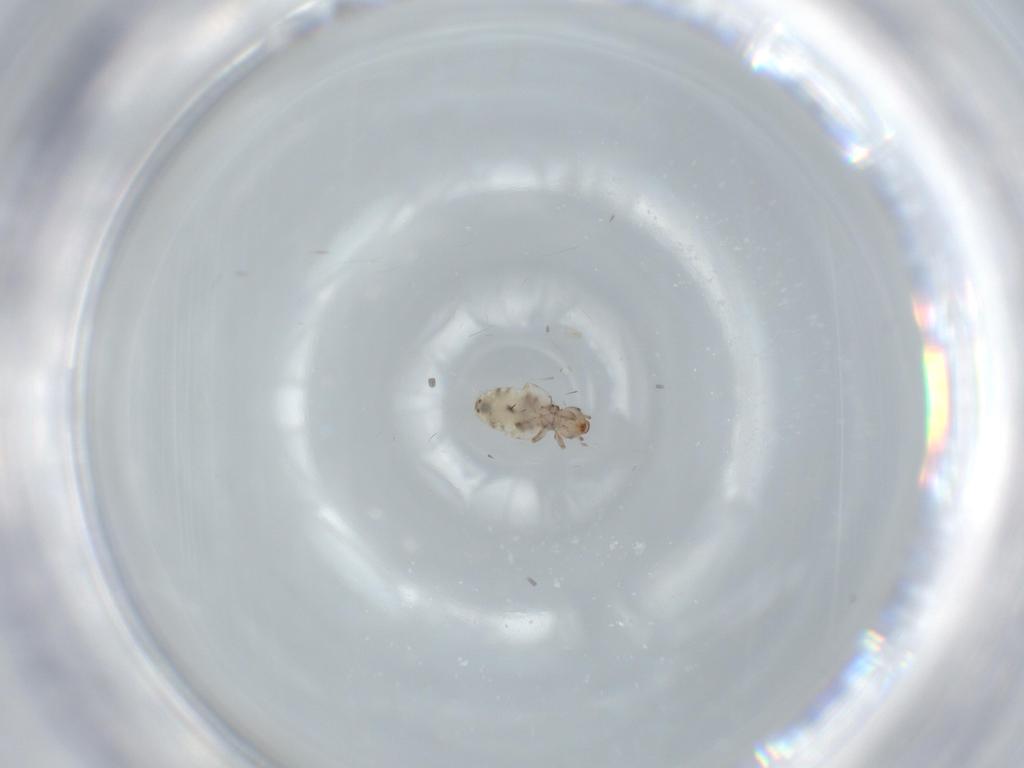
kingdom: Animalia
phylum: Arthropoda
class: Insecta
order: Psocodea
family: Liposcelididae
